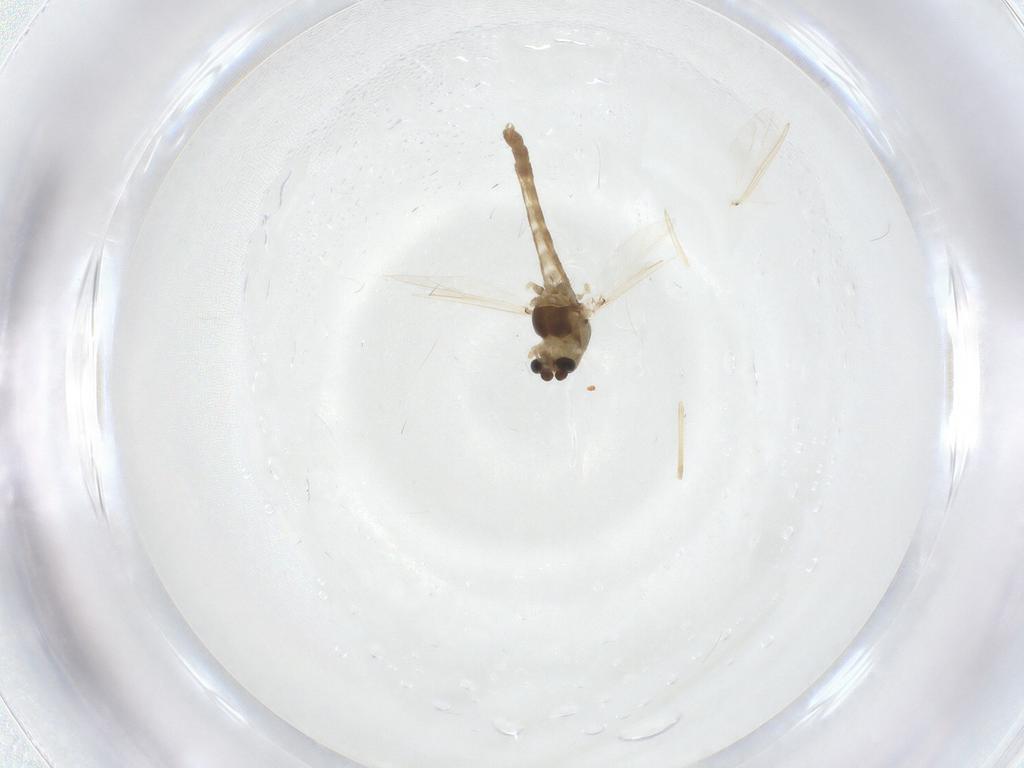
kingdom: Animalia
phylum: Arthropoda
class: Insecta
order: Diptera
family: Chironomidae
